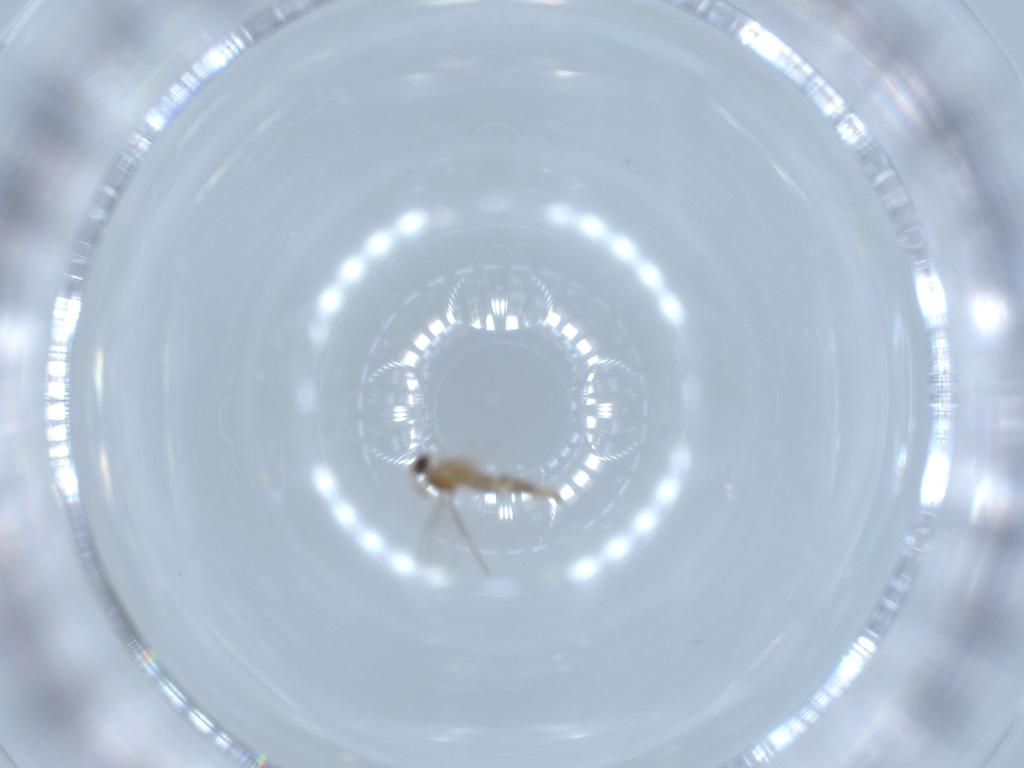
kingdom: Animalia
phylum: Arthropoda
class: Insecta
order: Diptera
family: Cecidomyiidae
